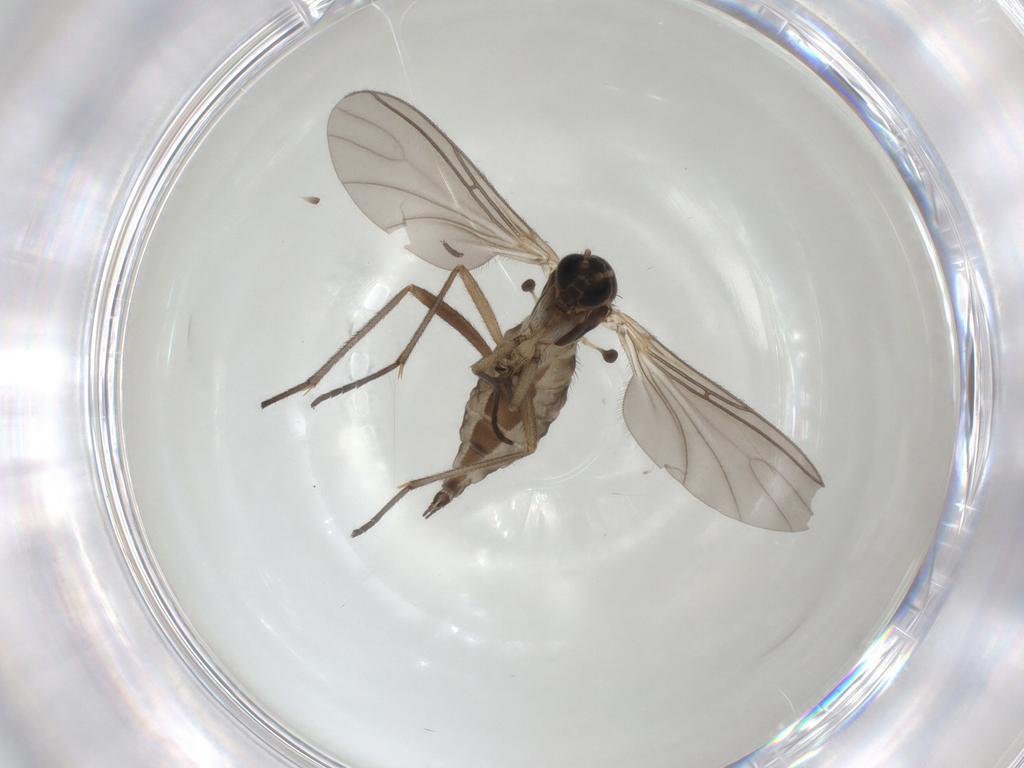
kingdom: Animalia
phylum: Arthropoda
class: Insecta
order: Diptera
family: Sciaridae
